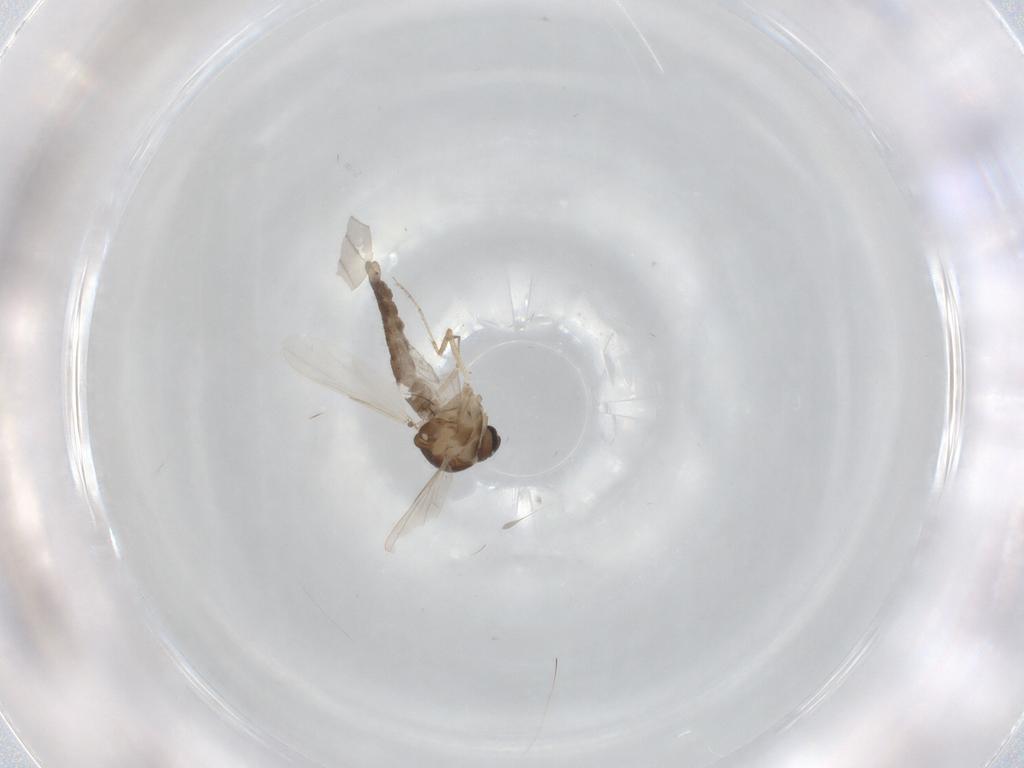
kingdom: Animalia
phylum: Arthropoda
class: Insecta
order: Diptera
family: Ceratopogonidae
